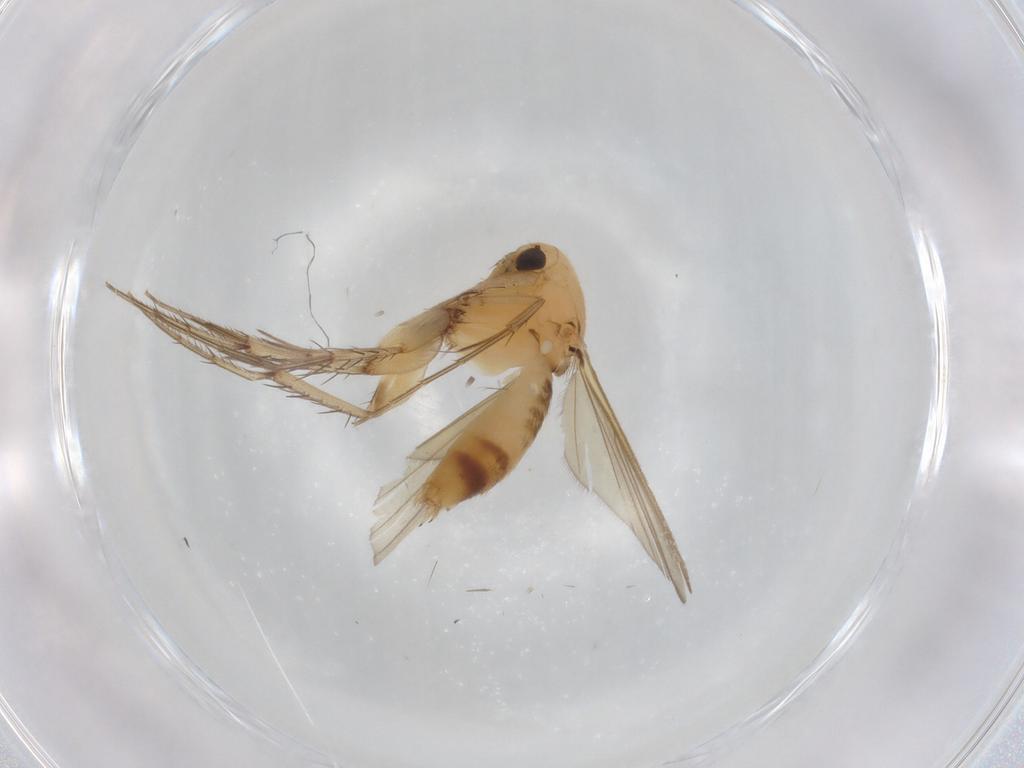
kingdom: Animalia
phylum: Arthropoda
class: Insecta
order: Diptera
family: Mycetophilidae
